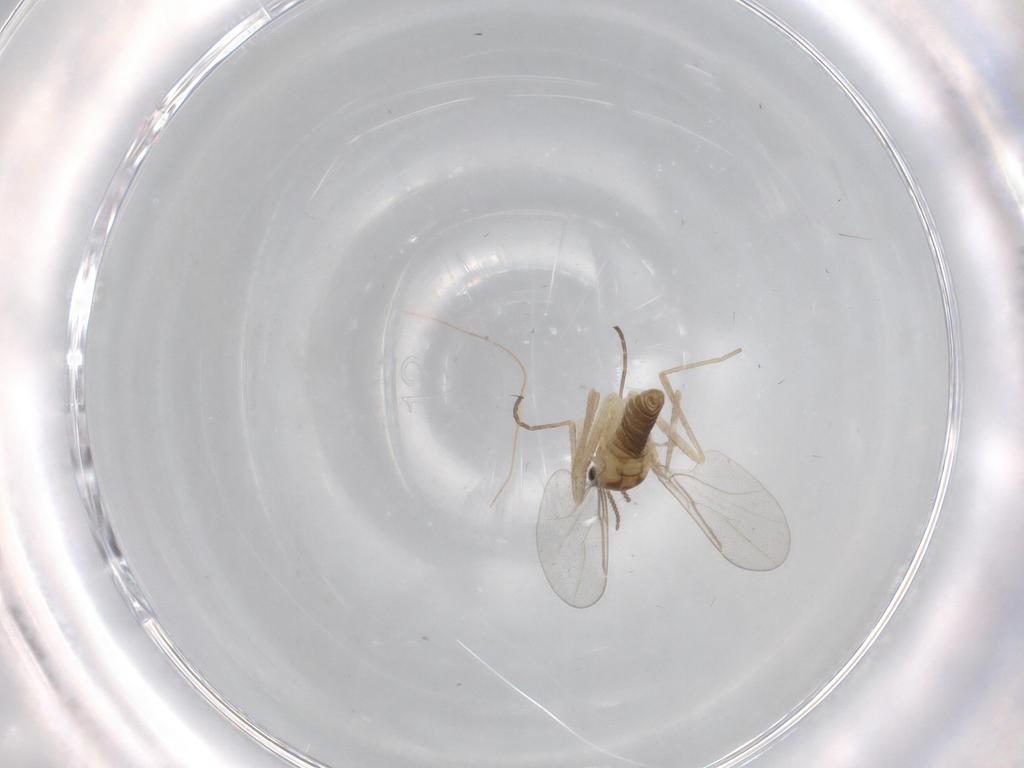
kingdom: Animalia
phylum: Arthropoda
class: Insecta
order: Diptera
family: Cecidomyiidae
